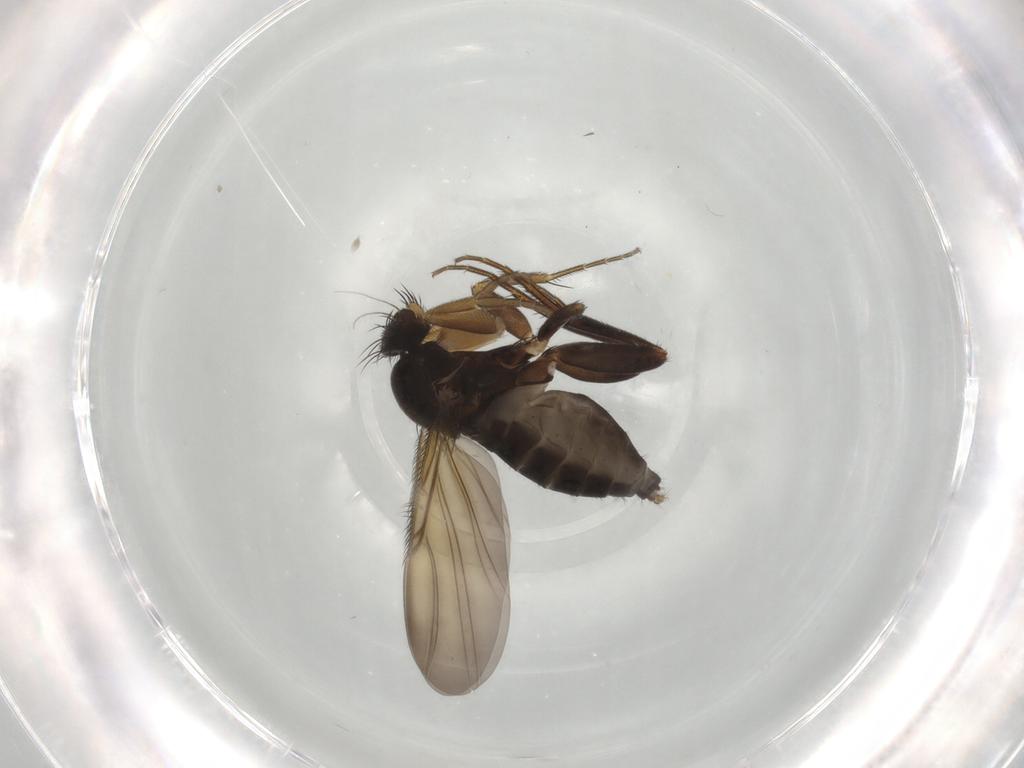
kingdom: Animalia
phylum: Arthropoda
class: Insecta
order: Diptera
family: Phoridae
